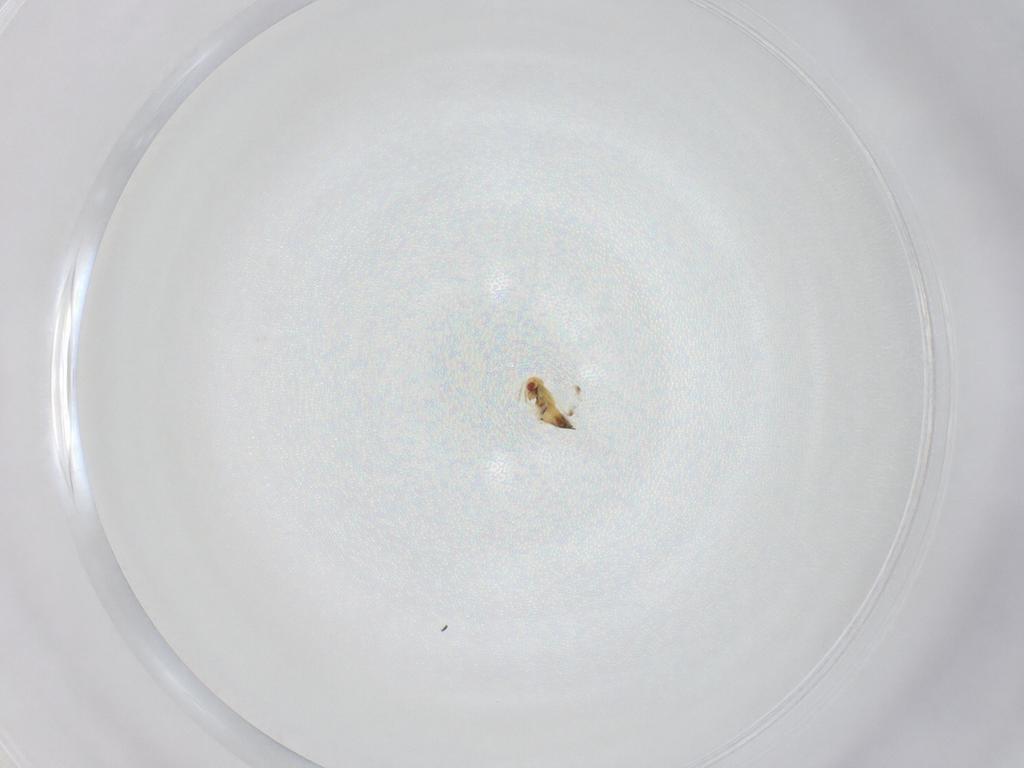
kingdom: Animalia
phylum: Arthropoda
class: Insecta
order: Hymenoptera
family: Trichogrammatidae
